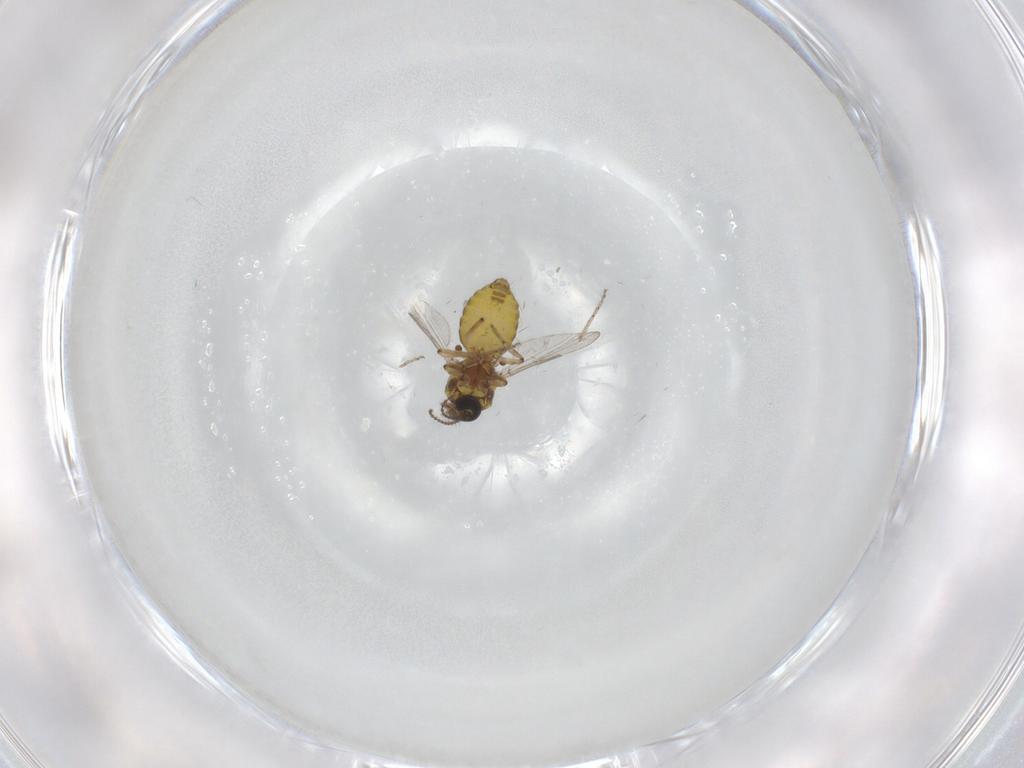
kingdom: Animalia
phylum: Arthropoda
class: Insecta
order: Diptera
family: Ceratopogonidae
